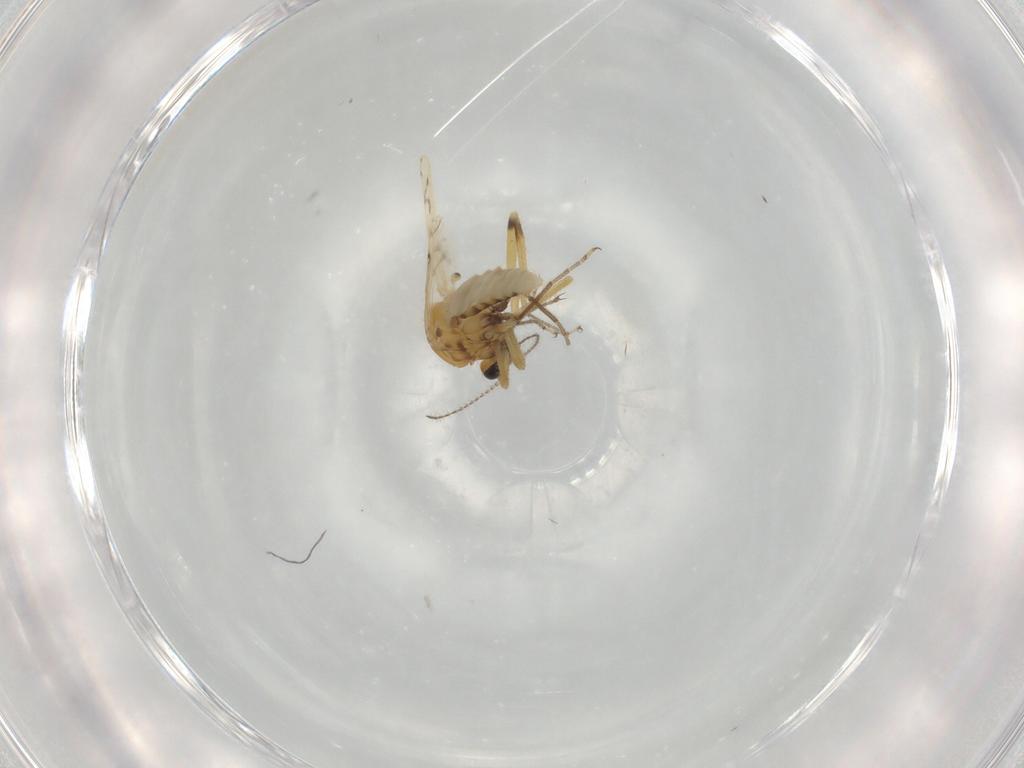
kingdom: Animalia
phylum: Arthropoda
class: Insecta
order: Diptera
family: Ceratopogonidae
